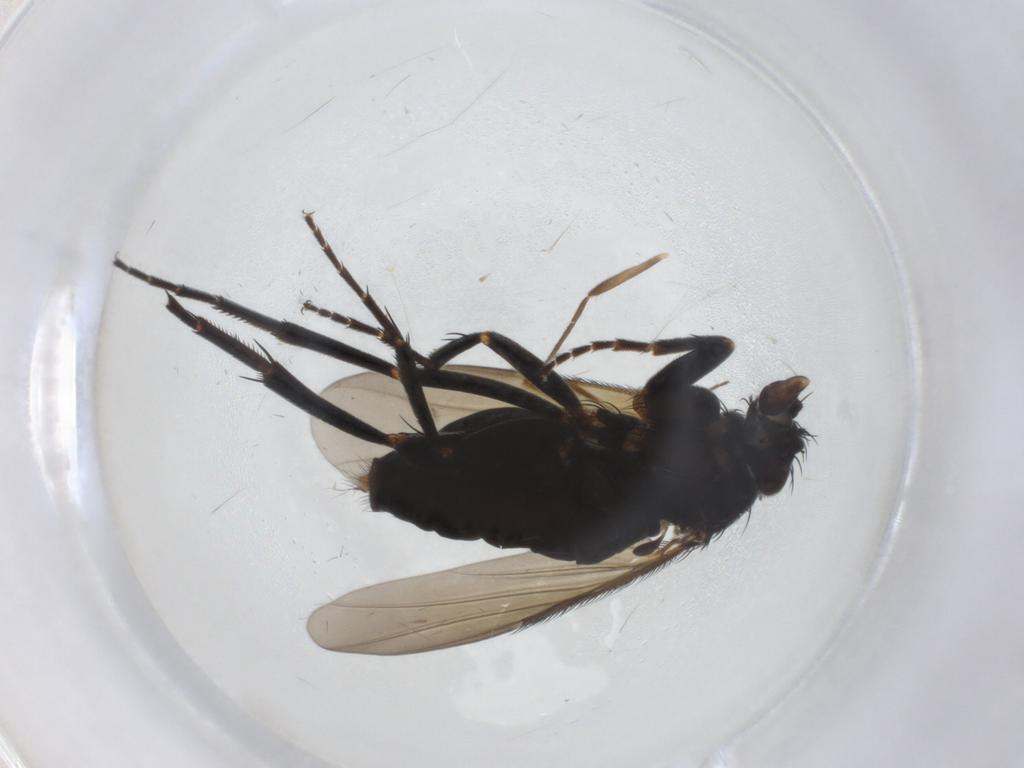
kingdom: Animalia
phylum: Arthropoda
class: Insecta
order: Diptera
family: Phoridae
